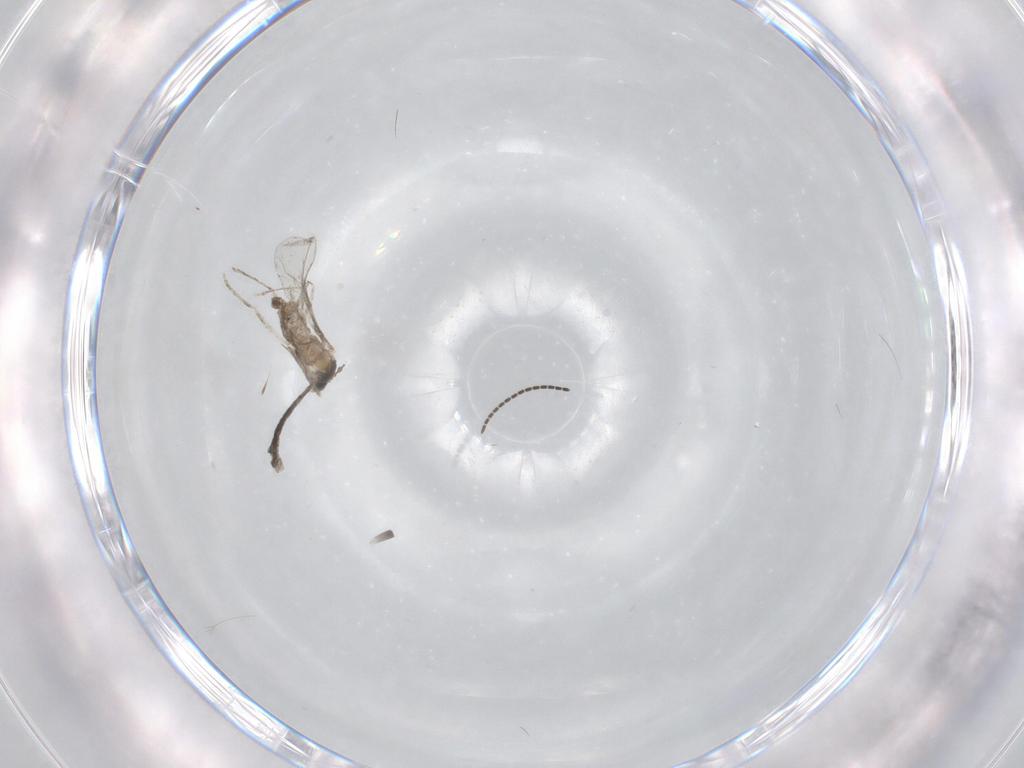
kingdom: Animalia
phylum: Arthropoda
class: Insecta
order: Diptera
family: Cecidomyiidae
